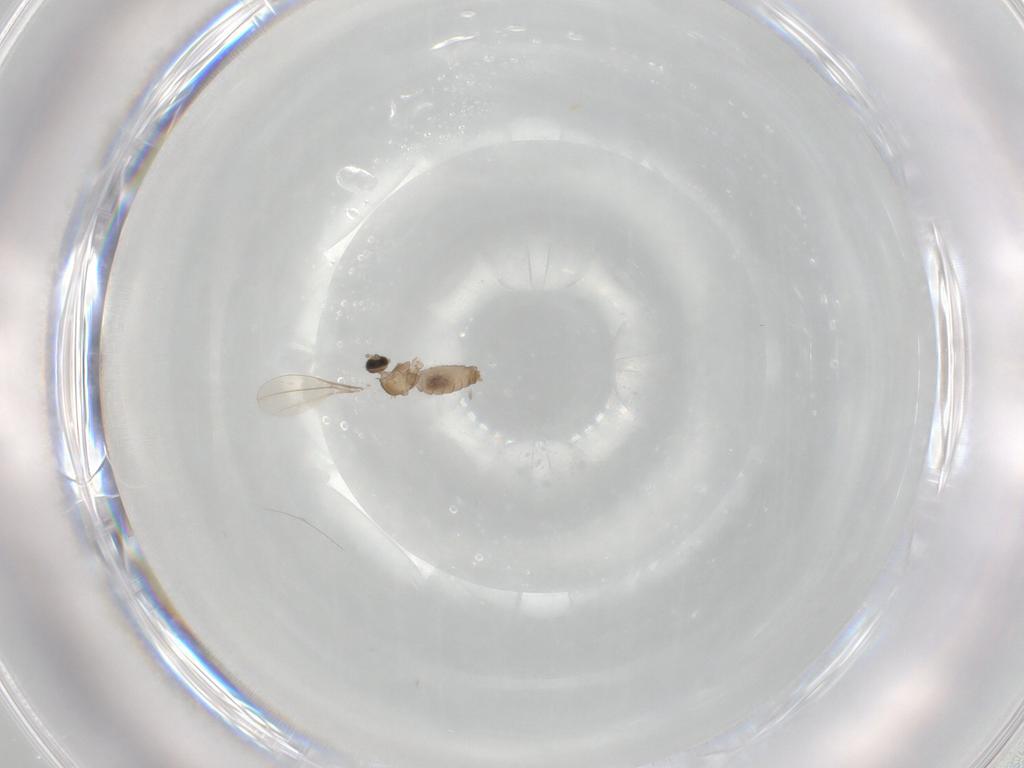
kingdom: Animalia
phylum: Arthropoda
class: Insecta
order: Diptera
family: Cecidomyiidae
